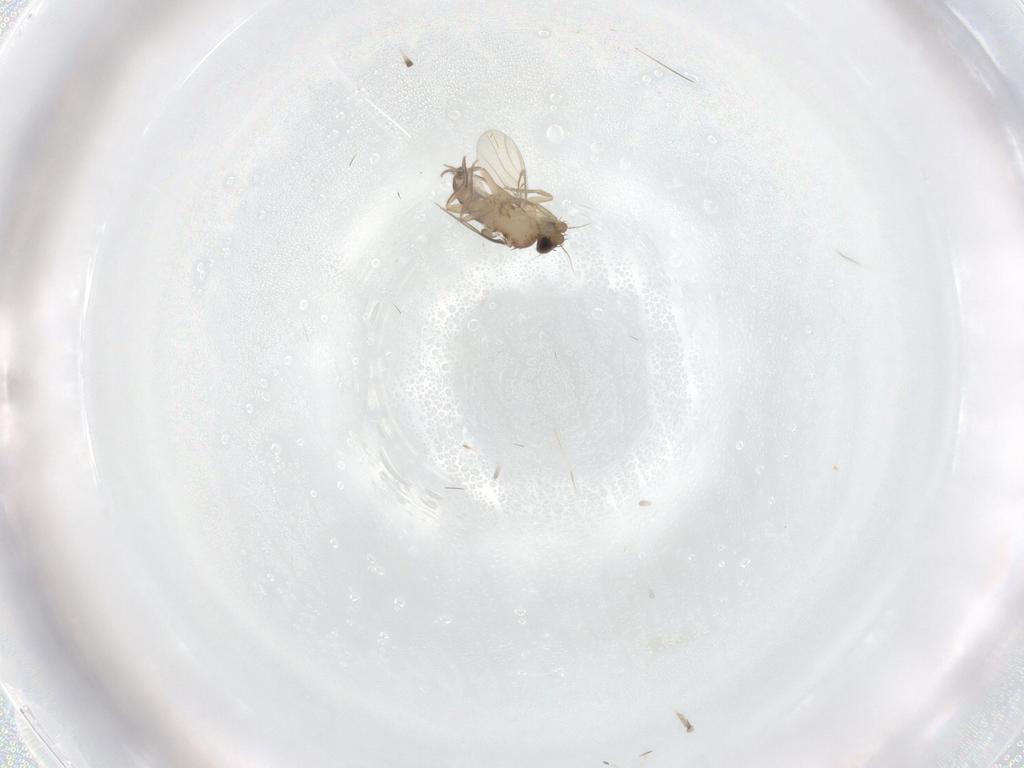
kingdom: Animalia
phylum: Arthropoda
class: Insecta
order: Diptera
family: Phoridae
